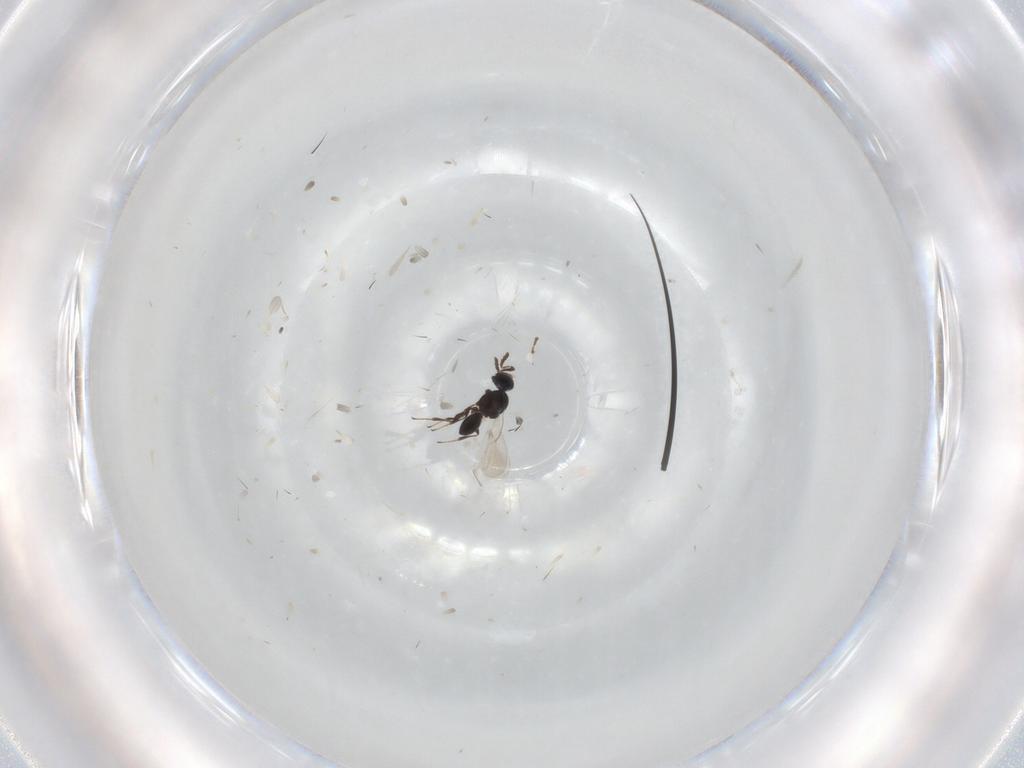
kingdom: Animalia
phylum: Arthropoda
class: Insecta
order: Hymenoptera
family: Platygastridae
